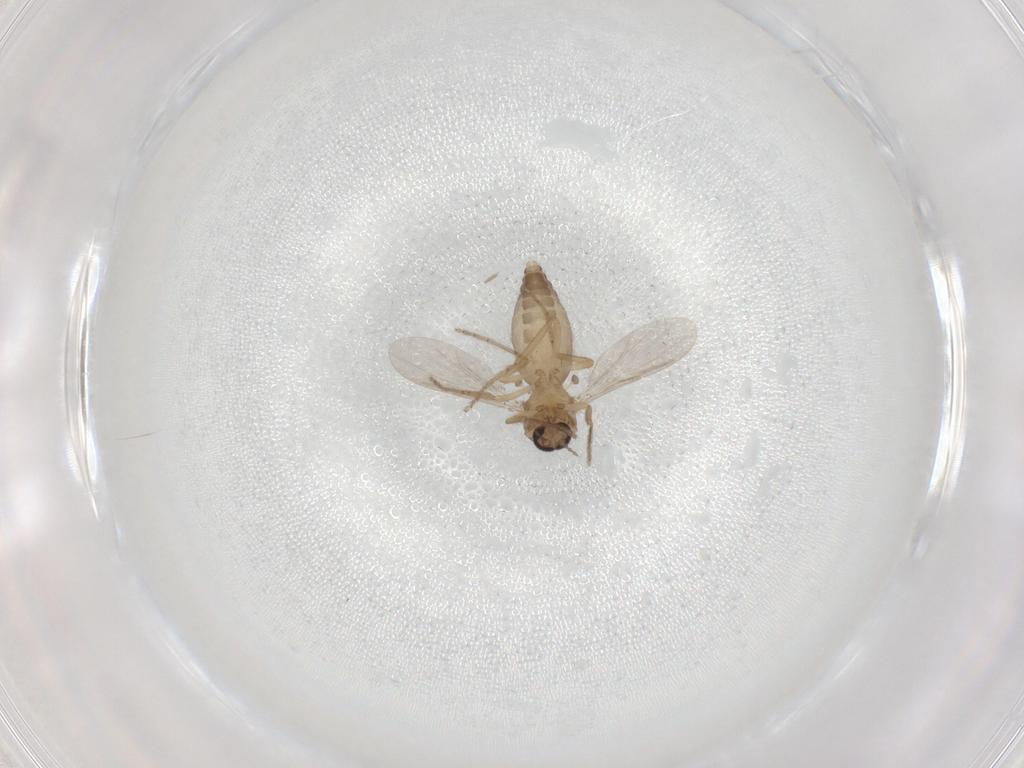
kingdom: Animalia
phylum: Arthropoda
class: Insecta
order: Diptera
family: Ceratopogonidae
